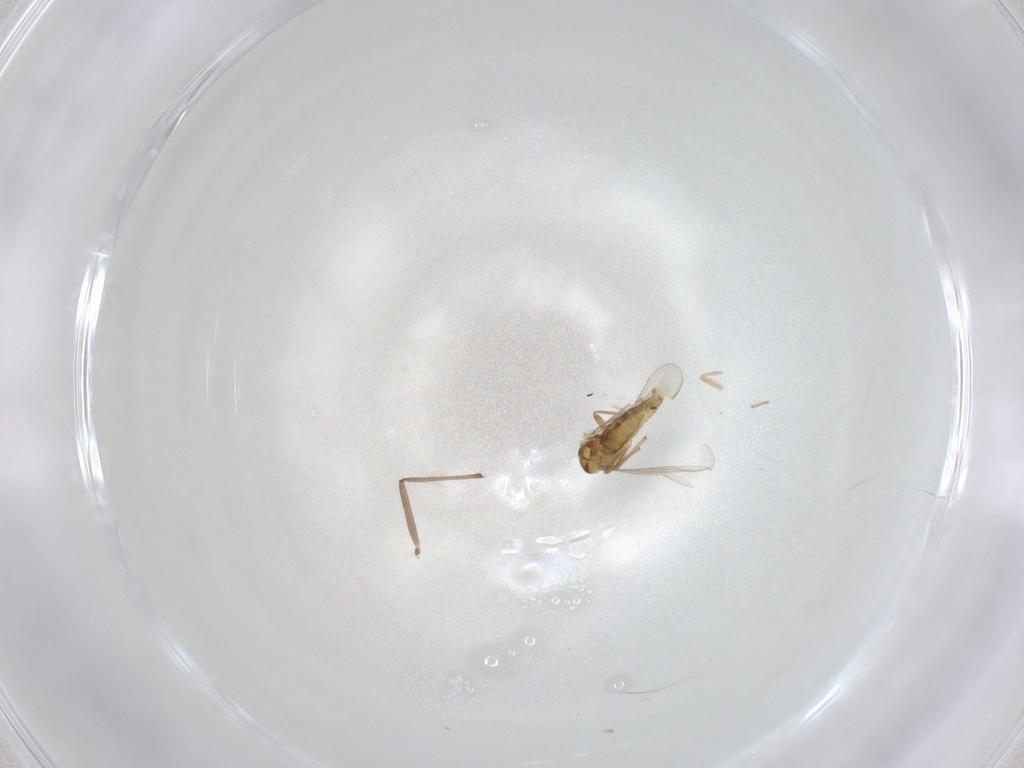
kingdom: Animalia
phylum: Arthropoda
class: Insecta
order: Diptera
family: Chironomidae
